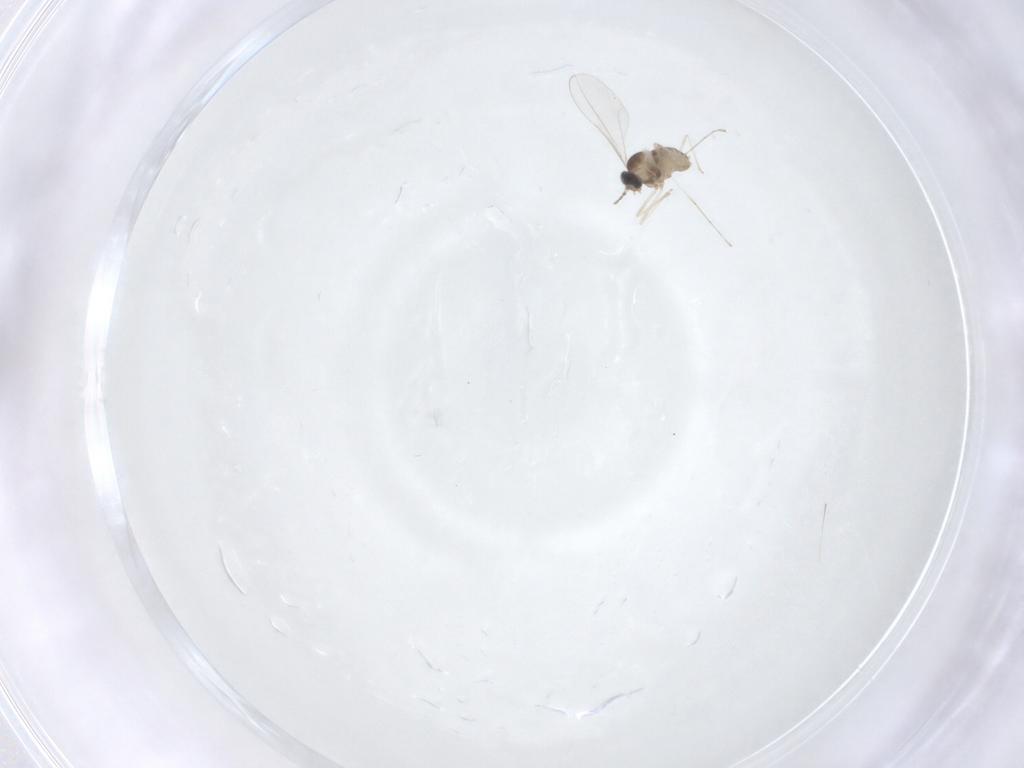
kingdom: Animalia
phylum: Arthropoda
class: Insecta
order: Diptera
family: Cecidomyiidae
